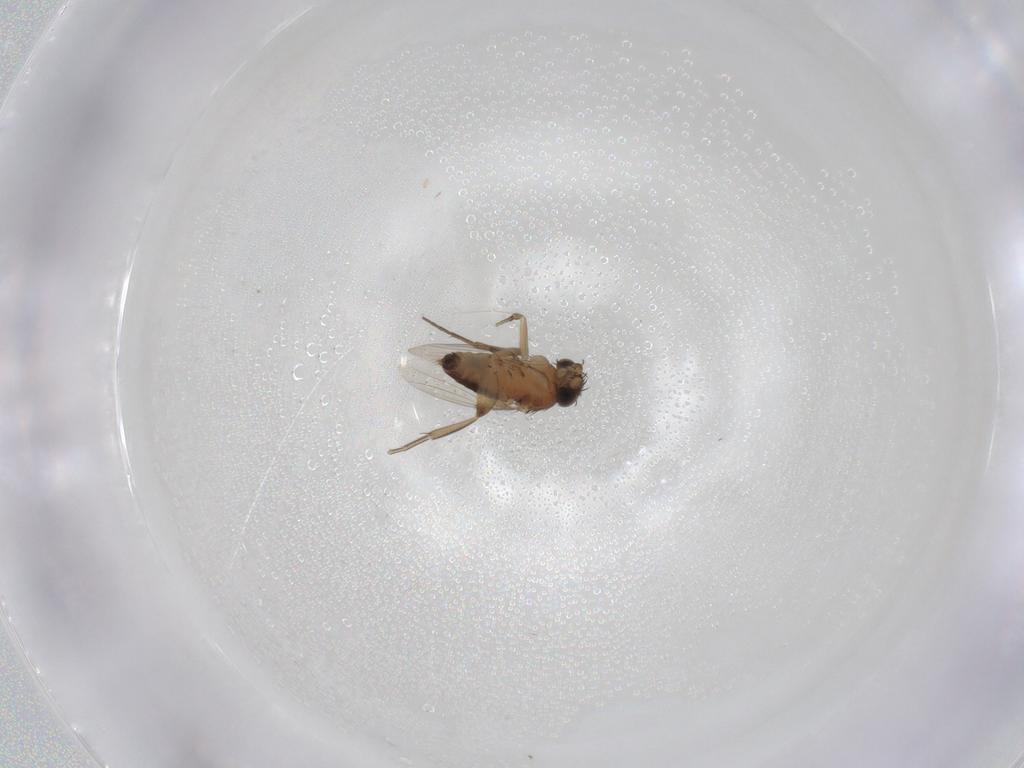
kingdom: Animalia
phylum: Arthropoda
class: Insecta
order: Diptera
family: Phoridae
